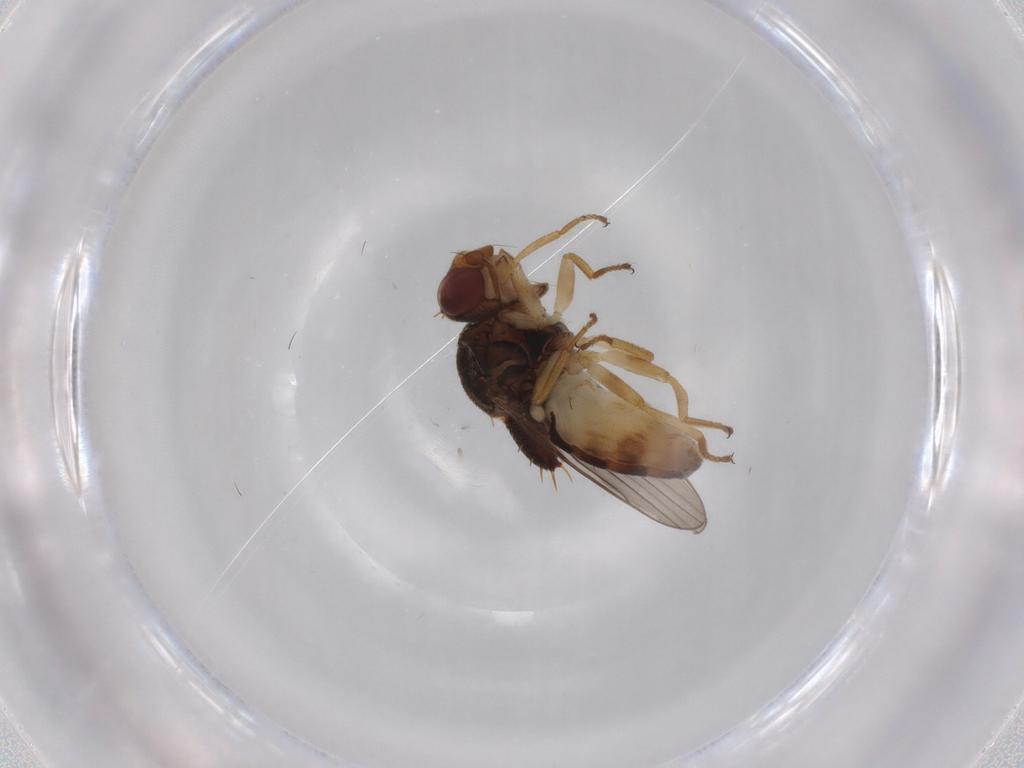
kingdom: Animalia
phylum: Arthropoda
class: Insecta
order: Diptera
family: Chloropidae
